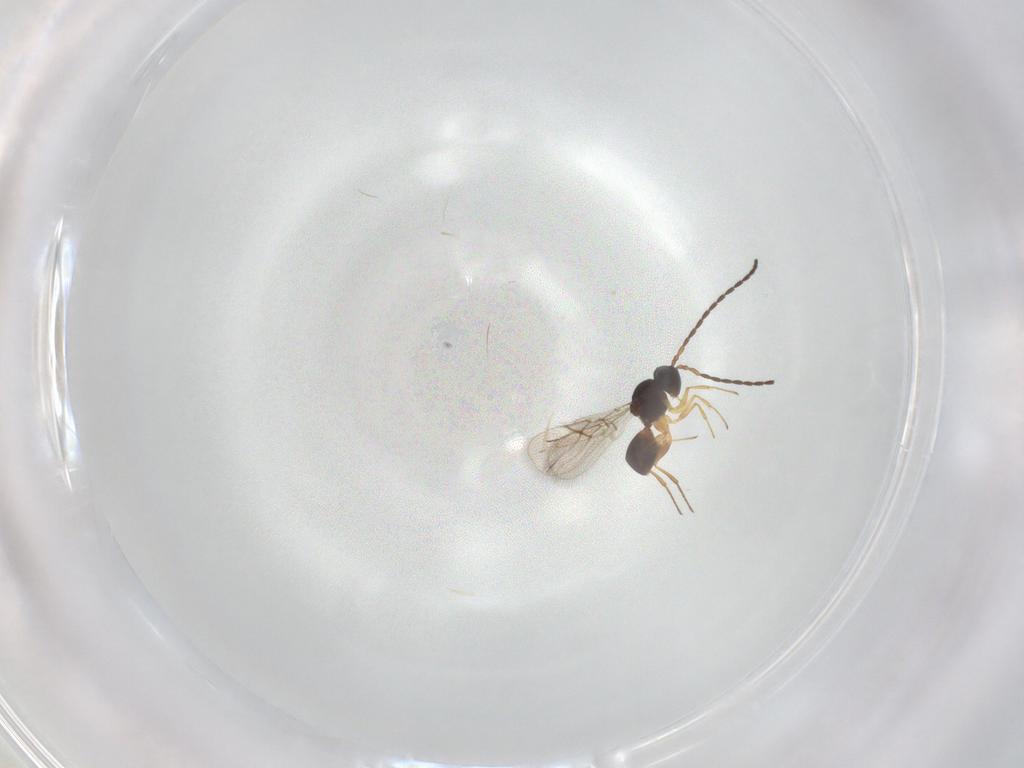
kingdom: Animalia
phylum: Arthropoda
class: Insecta
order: Hymenoptera
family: Figitidae
